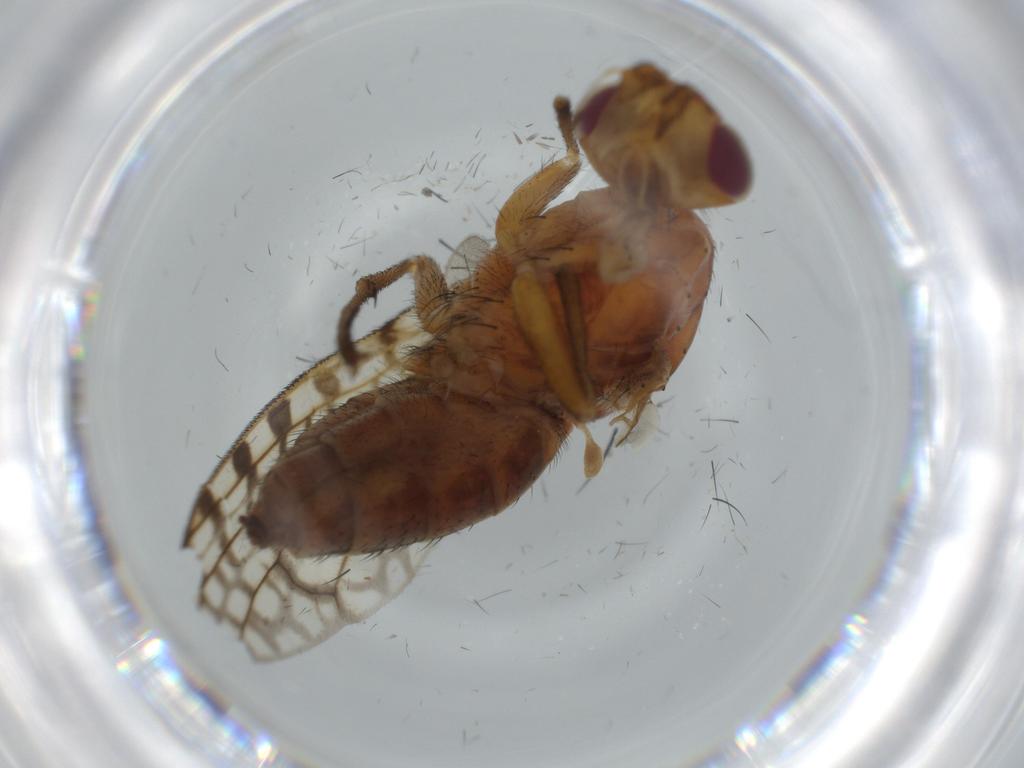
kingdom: Animalia
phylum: Arthropoda
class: Insecta
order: Diptera
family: Sciomyzidae
